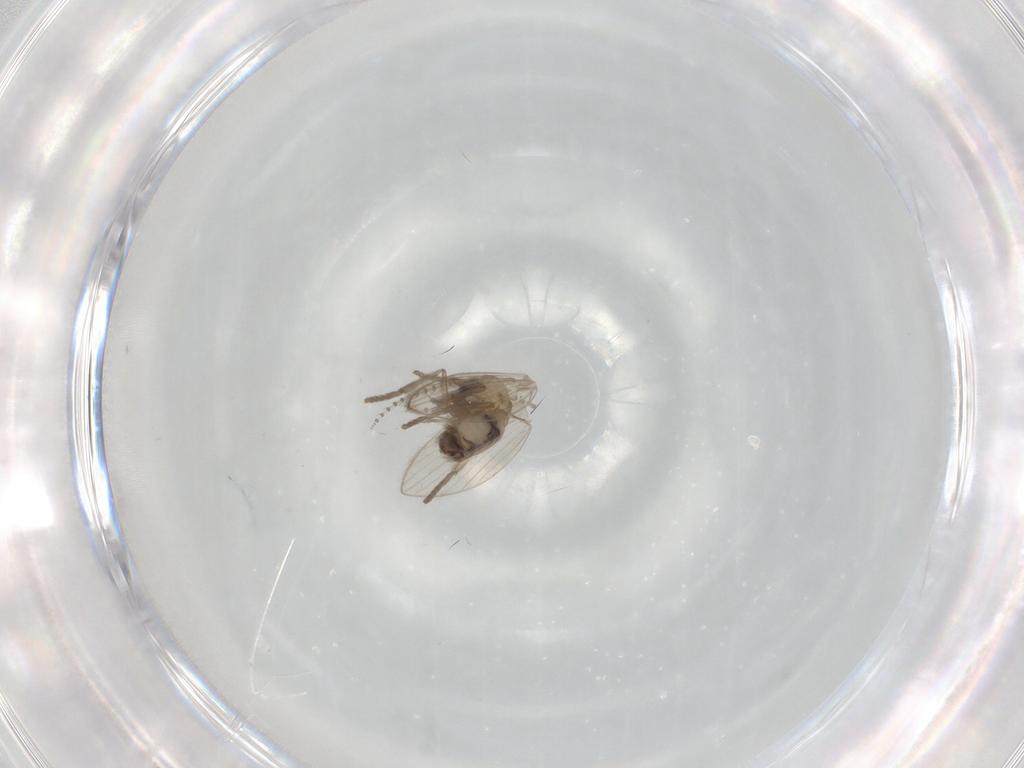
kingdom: Animalia
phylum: Arthropoda
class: Insecta
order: Diptera
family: Psychodidae
